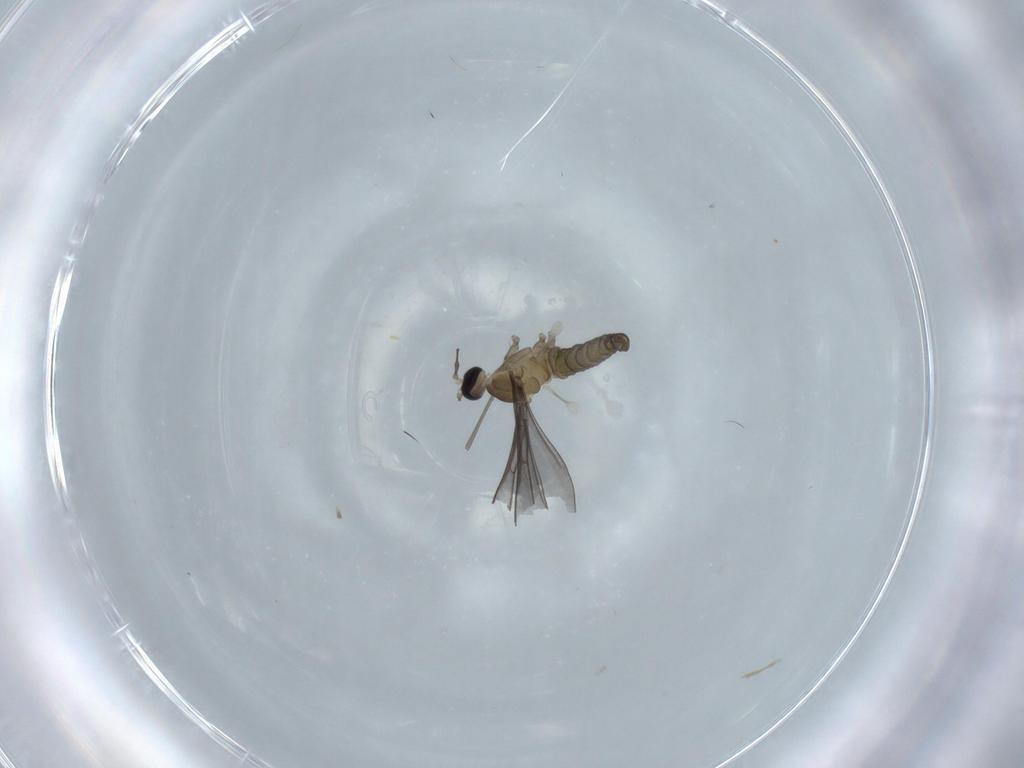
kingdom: Animalia
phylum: Arthropoda
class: Insecta
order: Diptera
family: Cecidomyiidae
